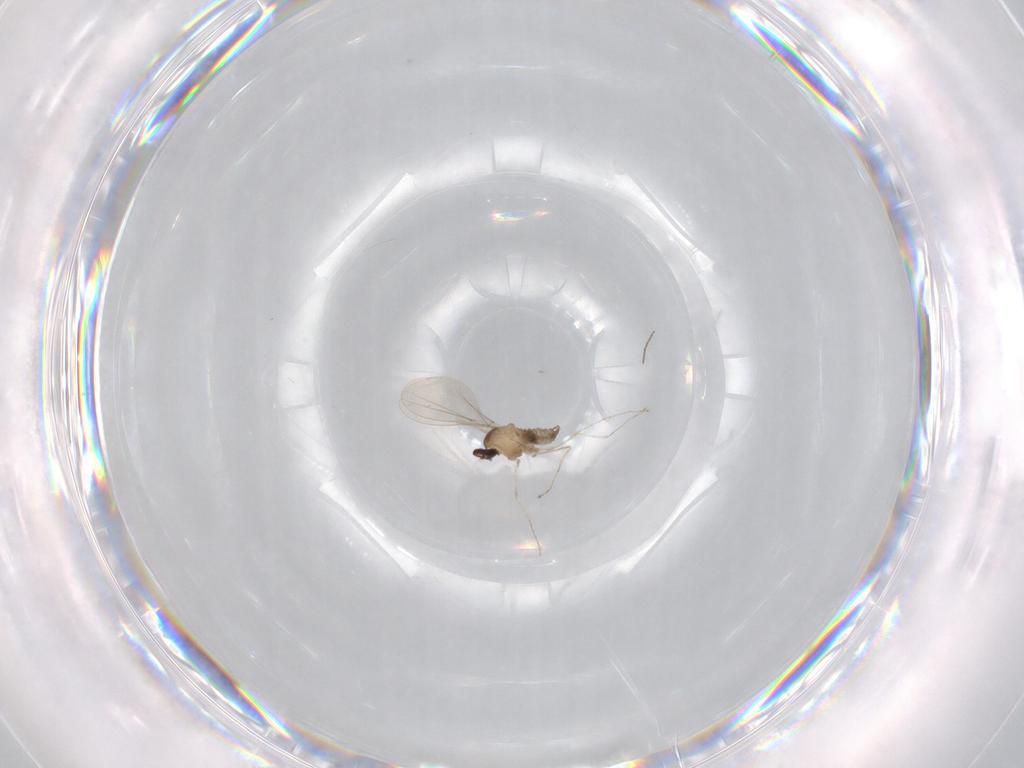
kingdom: Animalia
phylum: Arthropoda
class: Insecta
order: Diptera
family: Cecidomyiidae
